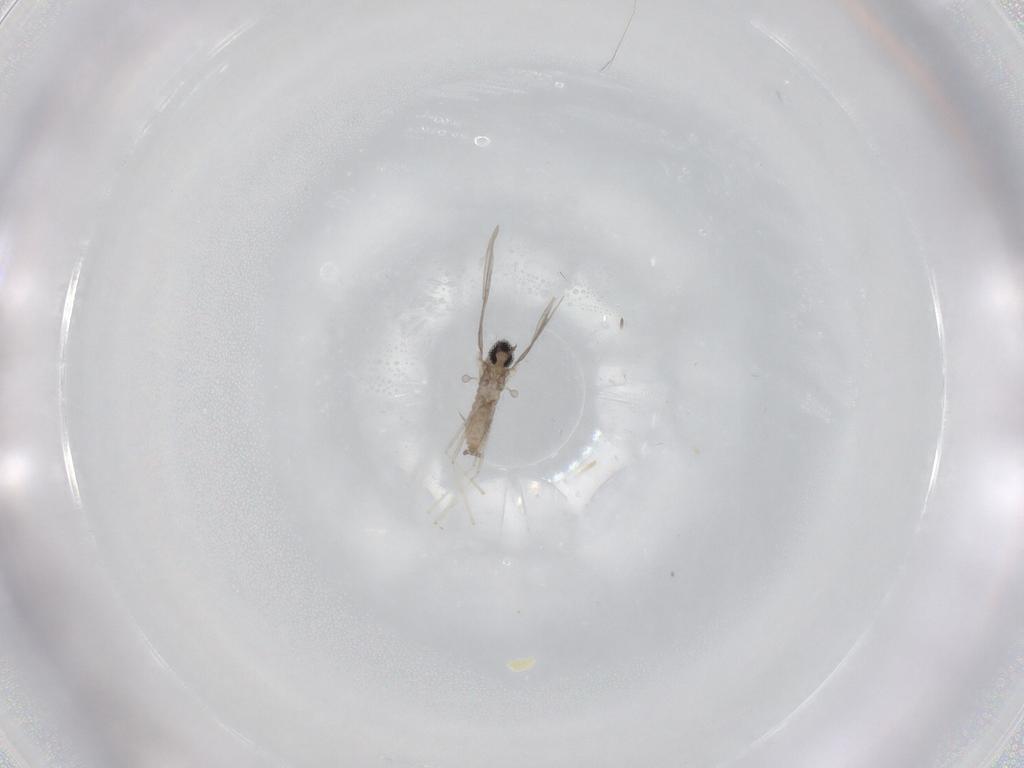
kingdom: Animalia
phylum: Arthropoda
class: Insecta
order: Diptera
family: Cecidomyiidae
